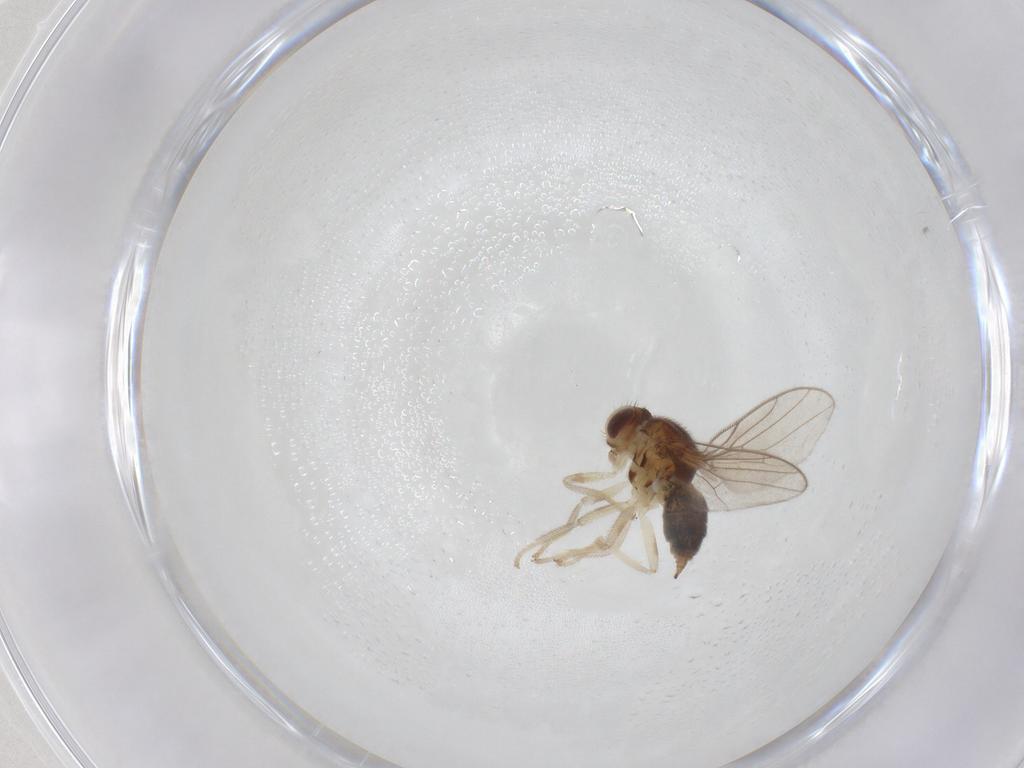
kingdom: Animalia
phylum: Arthropoda
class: Insecta
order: Diptera
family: Chloropidae
